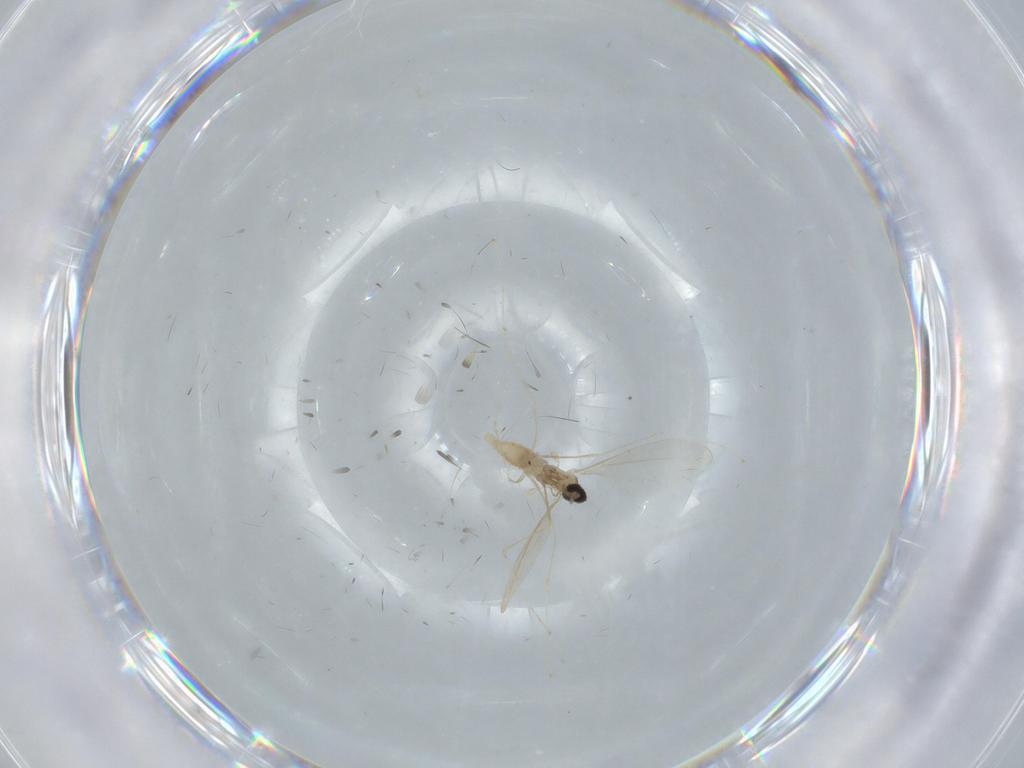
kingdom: Animalia
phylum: Arthropoda
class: Insecta
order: Diptera
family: Cecidomyiidae
